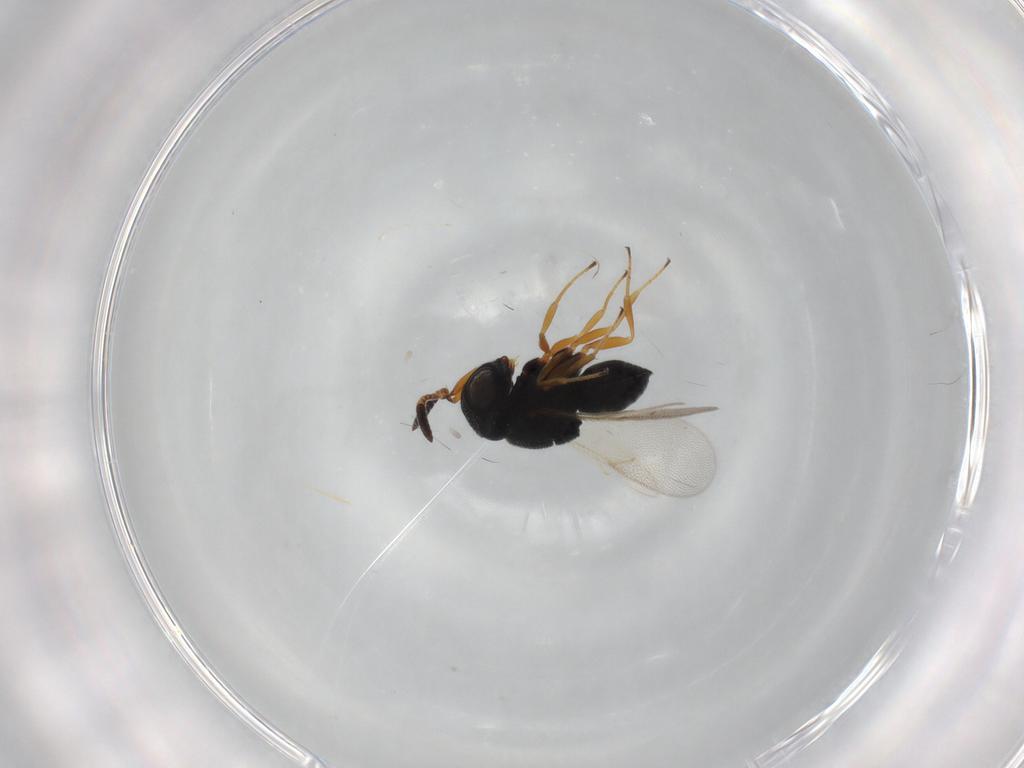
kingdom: Animalia
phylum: Arthropoda
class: Insecta
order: Hymenoptera
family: Scelionidae
